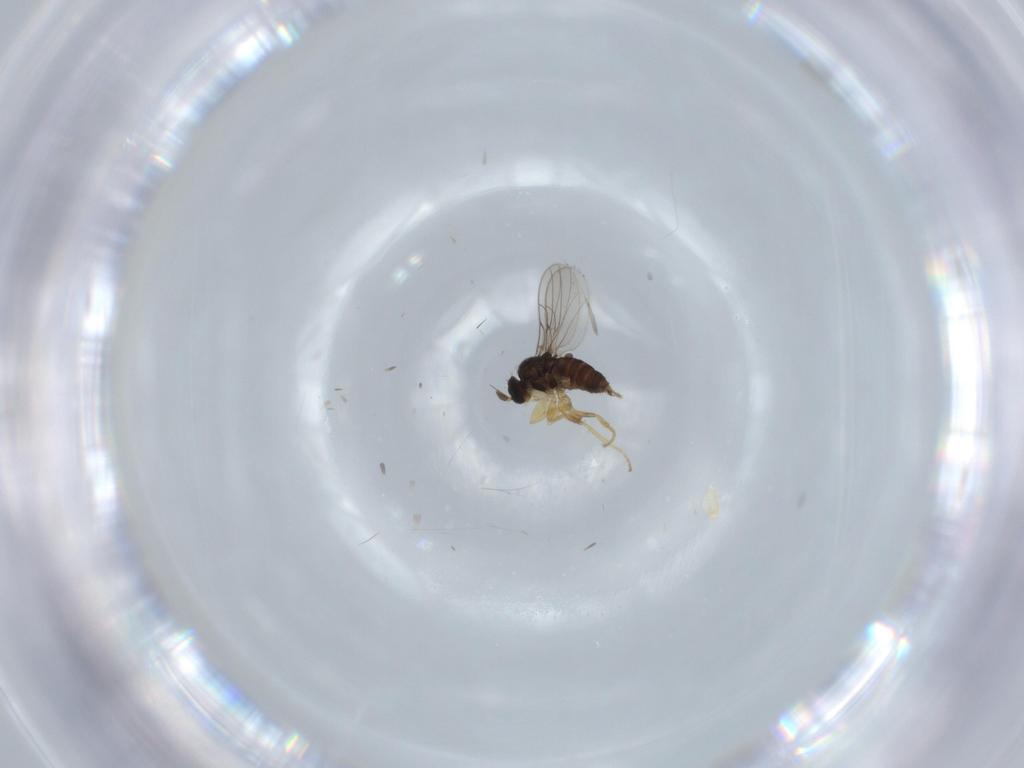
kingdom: Animalia
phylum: Arthropoda
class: Insecta
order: Diptera
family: Hybotidae
